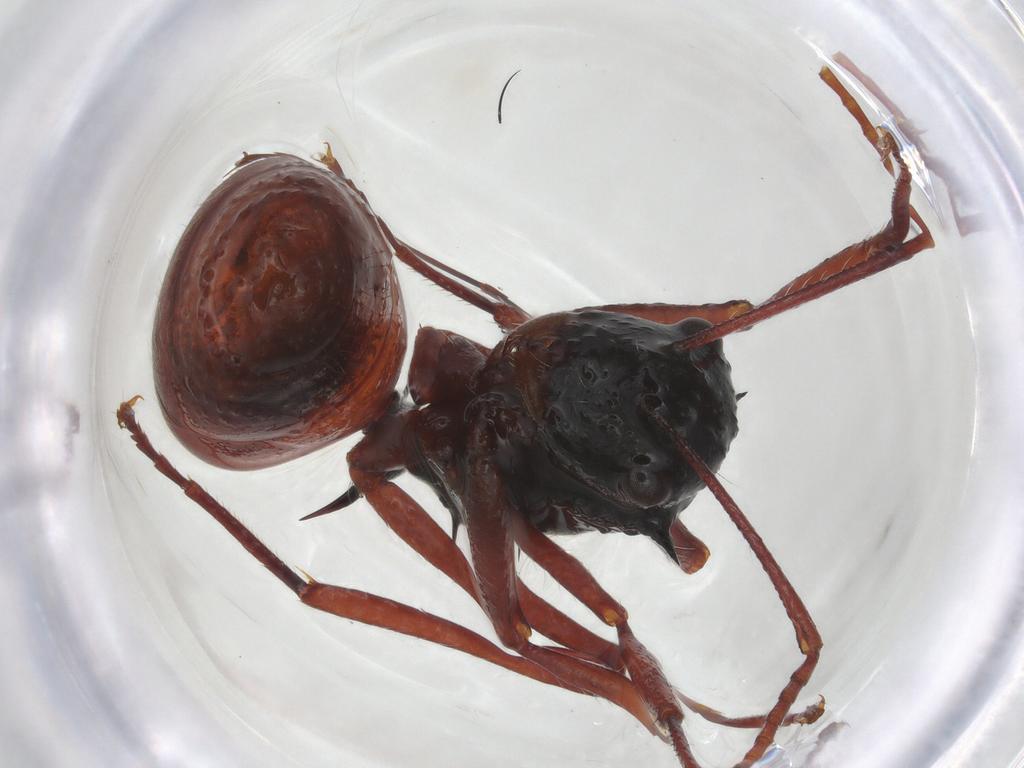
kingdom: Animalia
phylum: Arthropoda
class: Insecta
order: Hymenoptera
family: Formicidae
